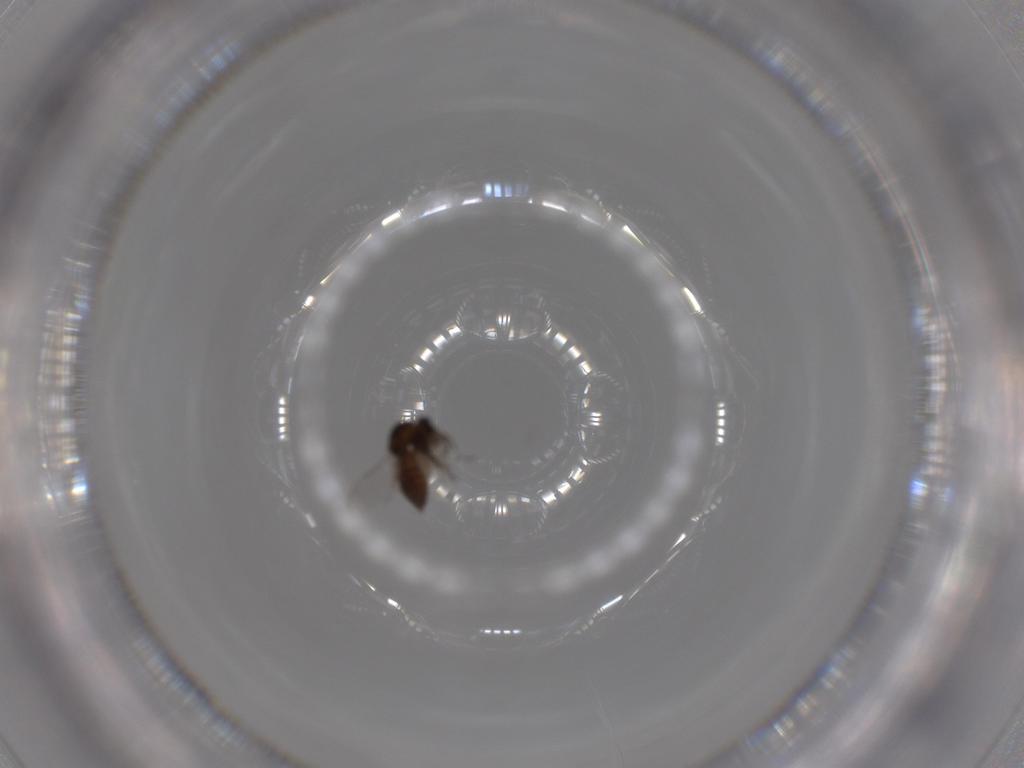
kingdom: Animalia
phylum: Arthropoda
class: Insecta
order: Diptera
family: Ceratopogonidae
